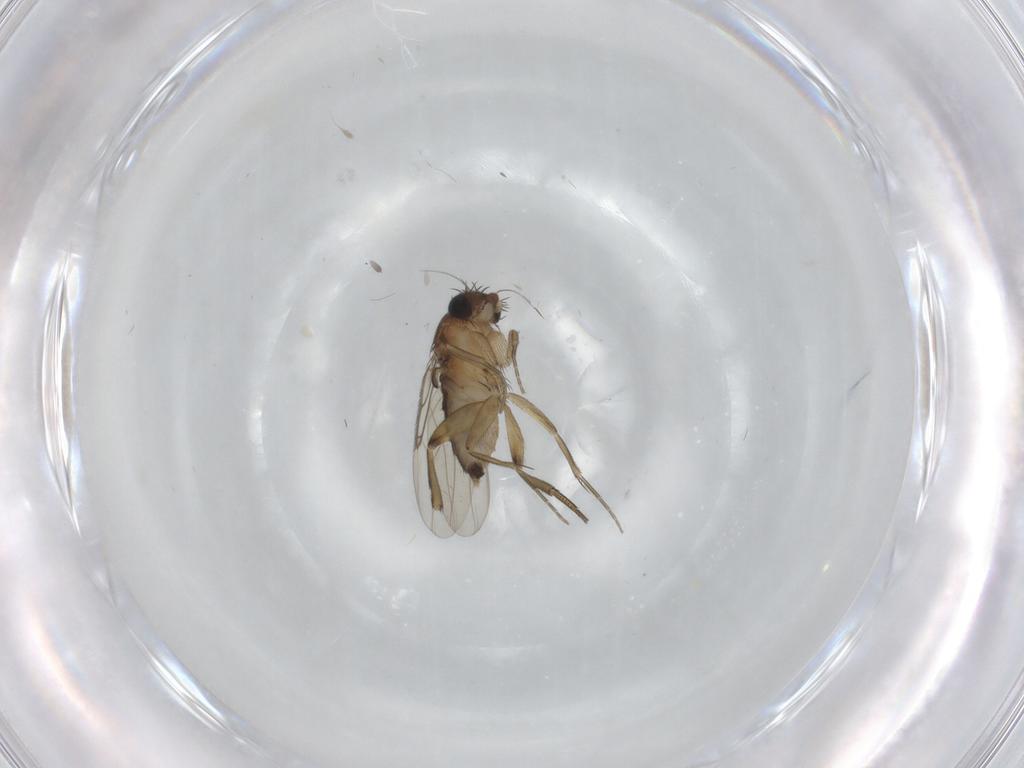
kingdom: Animalia
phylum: Arthropoda
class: Insecta
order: Diptera
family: Phoridae
